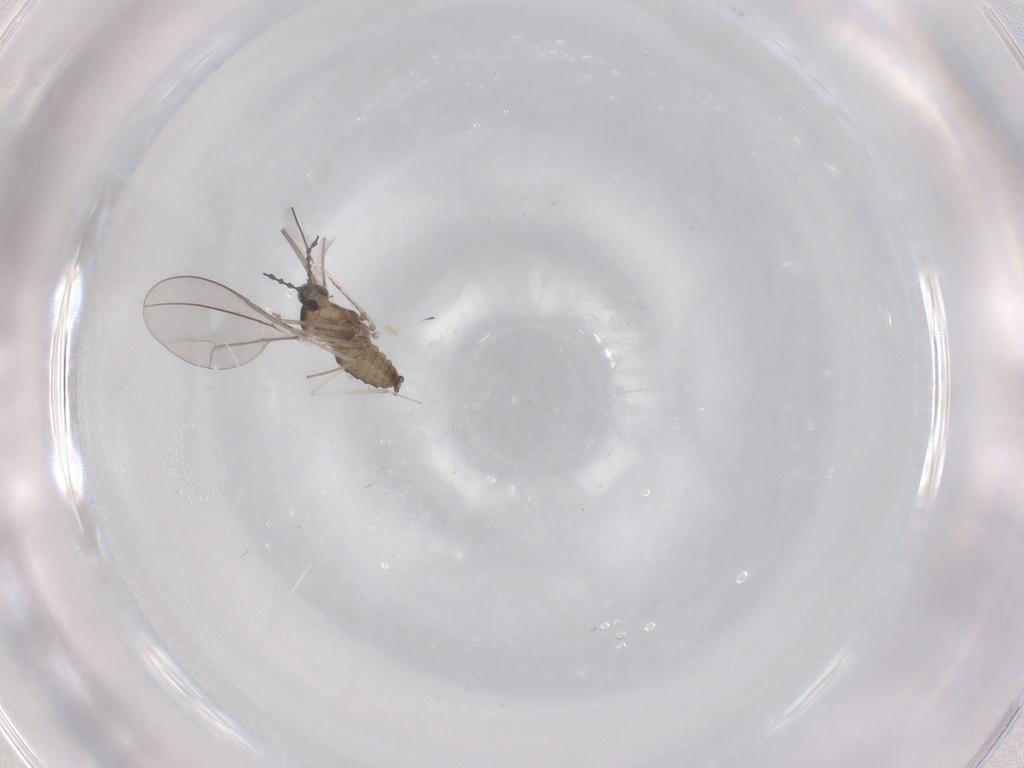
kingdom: Animalia
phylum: Arthropoda
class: Insecta
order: Diptera
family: Cecidomyiidae
